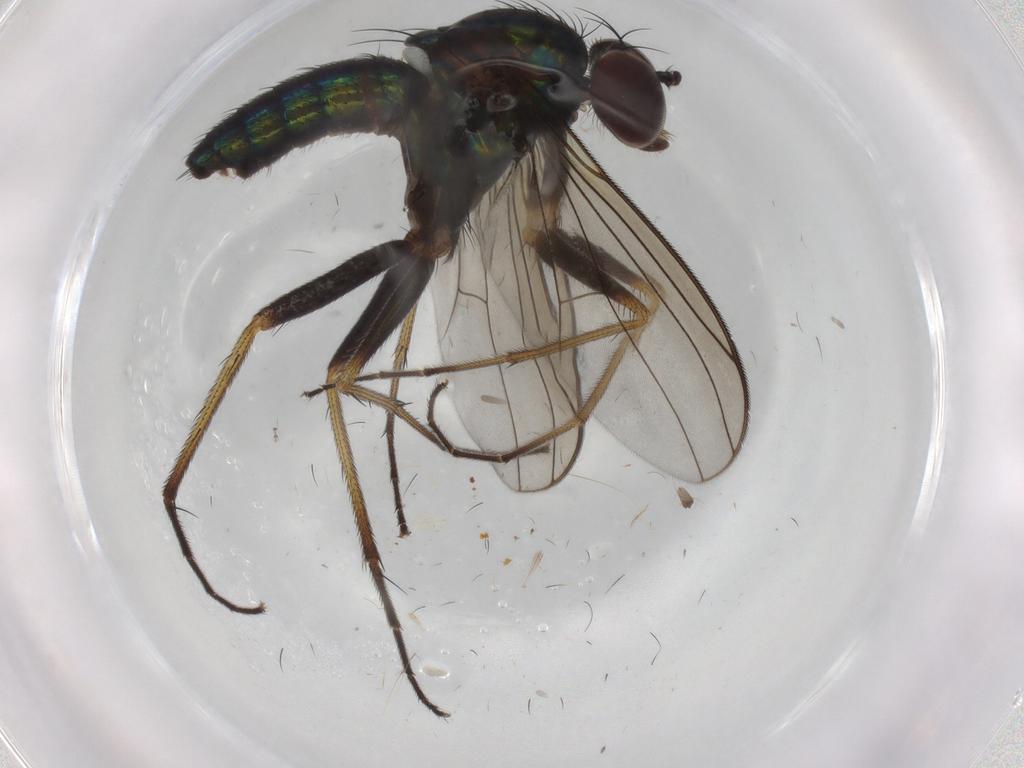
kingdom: Animalia
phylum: Arthropoda
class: Insecta
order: Diptera
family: Dolichopodidae
